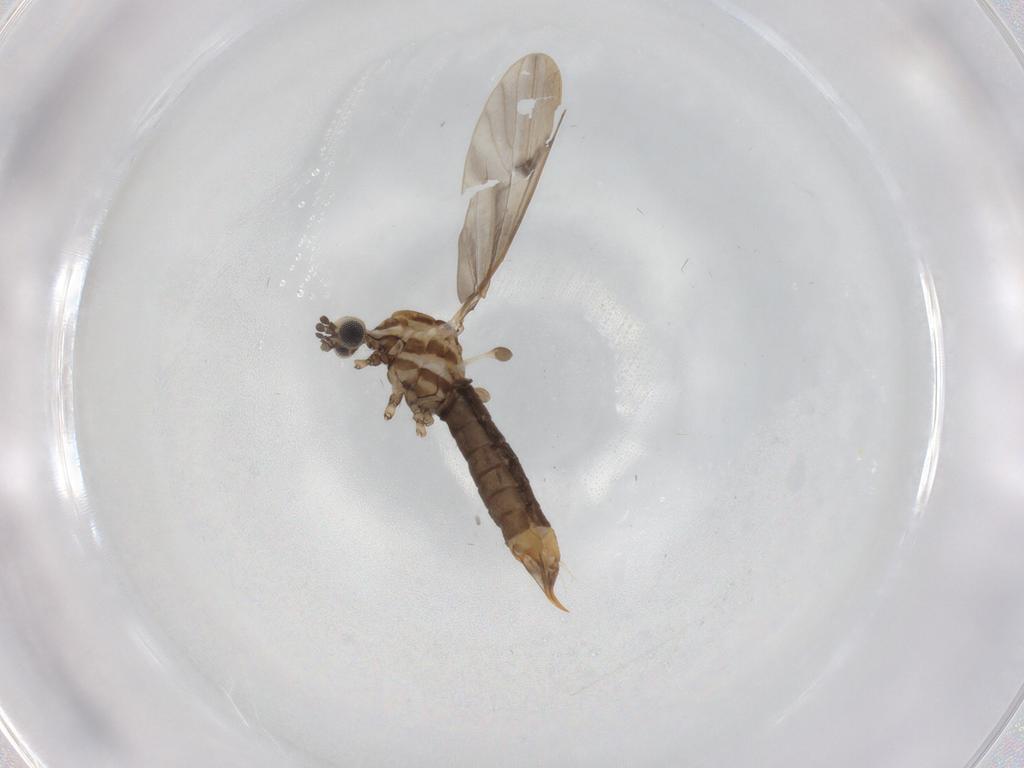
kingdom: Animalia
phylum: Arthropoda
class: Insecta
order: Diptera
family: Limoniidae
